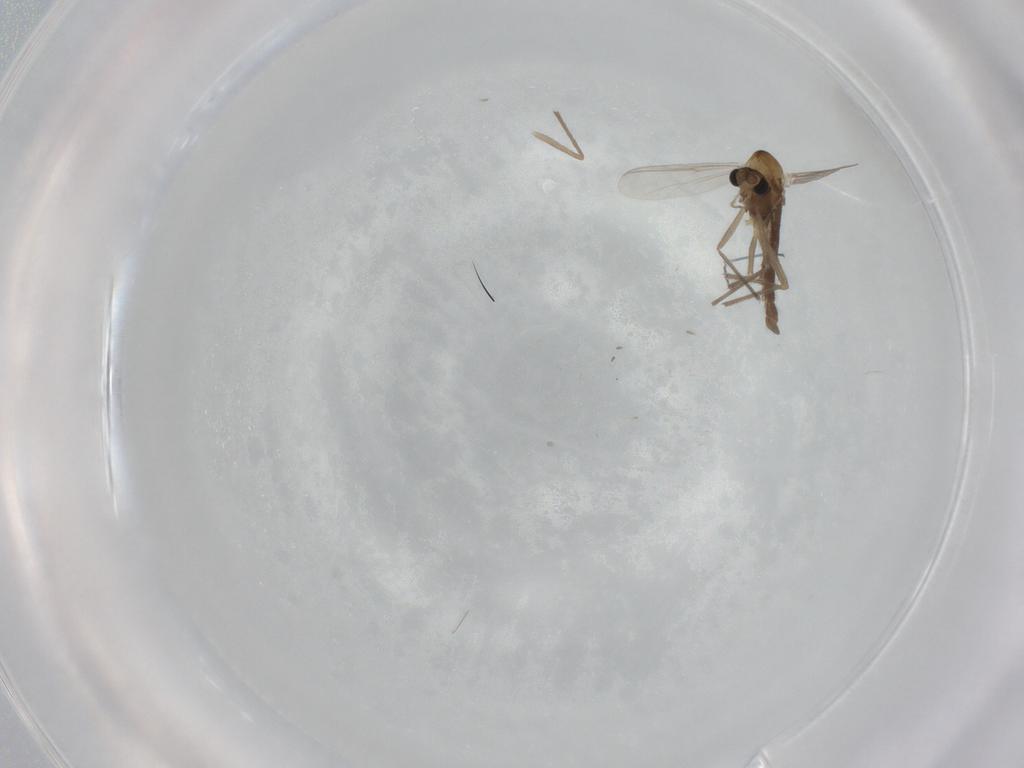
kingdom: Animalia
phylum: Arthropoda
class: Insecta
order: Diptera
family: Chironomidae
